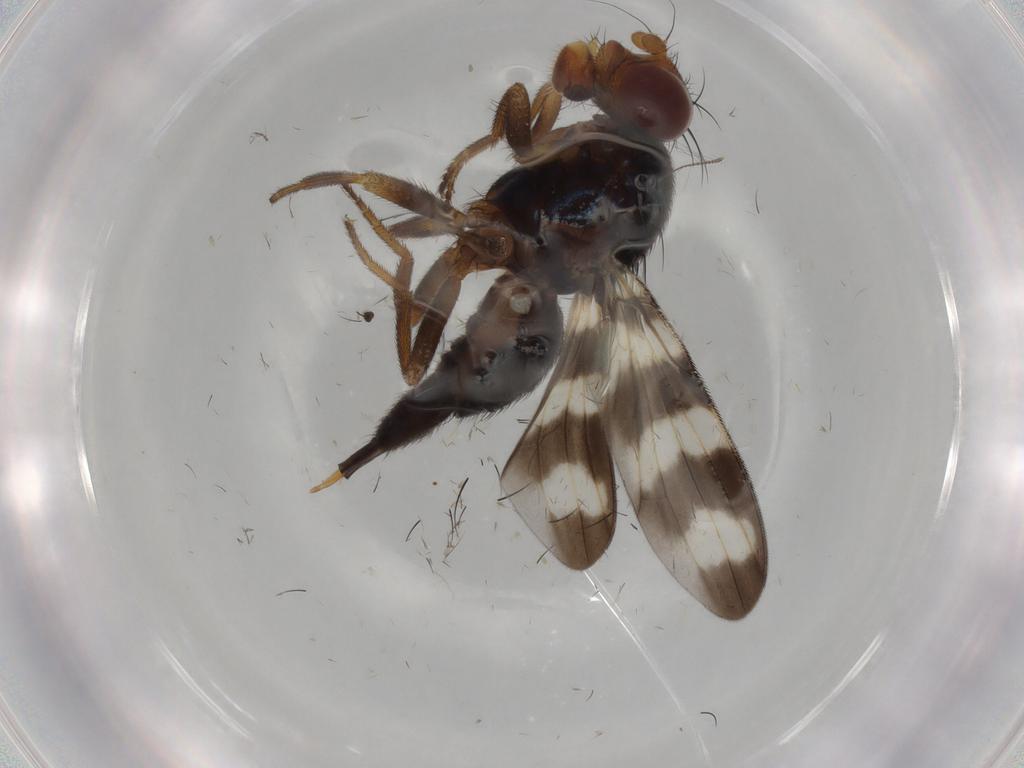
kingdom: Animalia
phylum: Arthropoda
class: Insecta
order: Diptera
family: Ulidiidae
